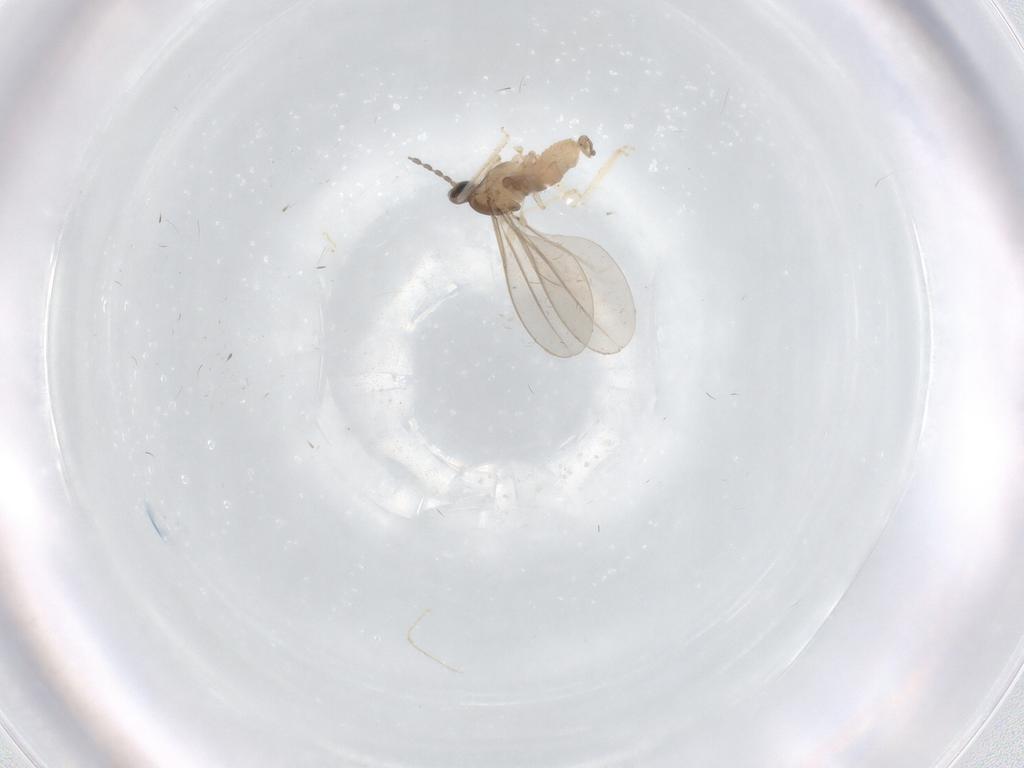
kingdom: Animalia
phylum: Arthropoda
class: Insecta
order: Diptera
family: Cecidomyiidae
